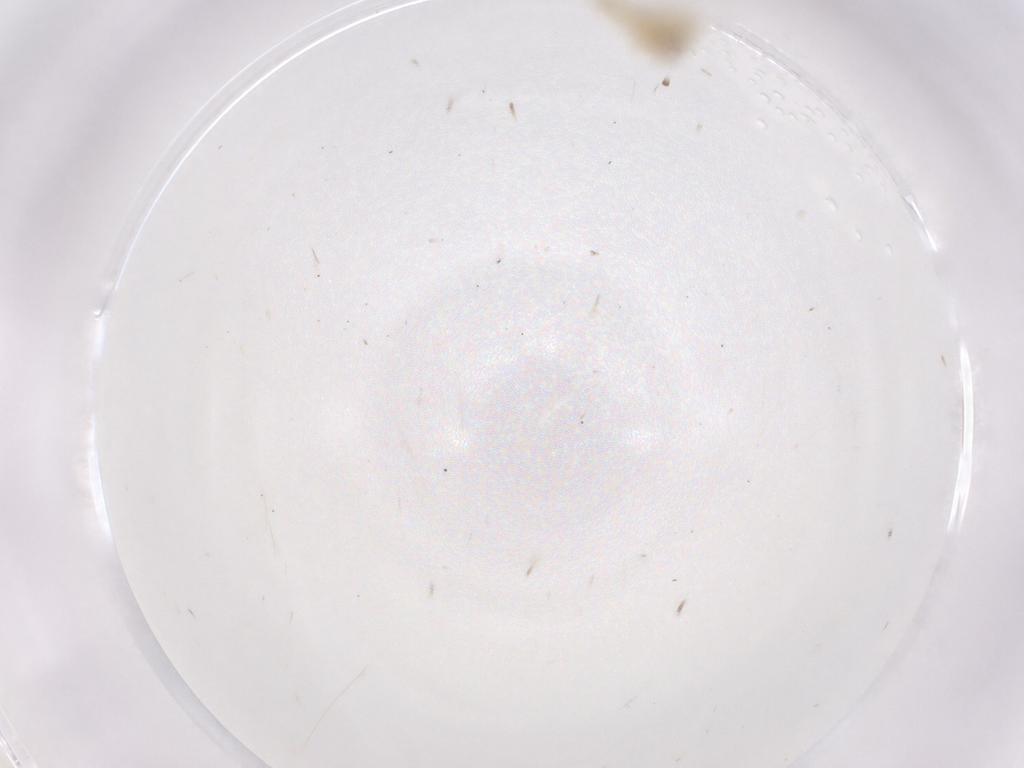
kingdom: Animalia
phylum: Arthropoda
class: Insecta
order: Hemiptera
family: Aleyrodidae
